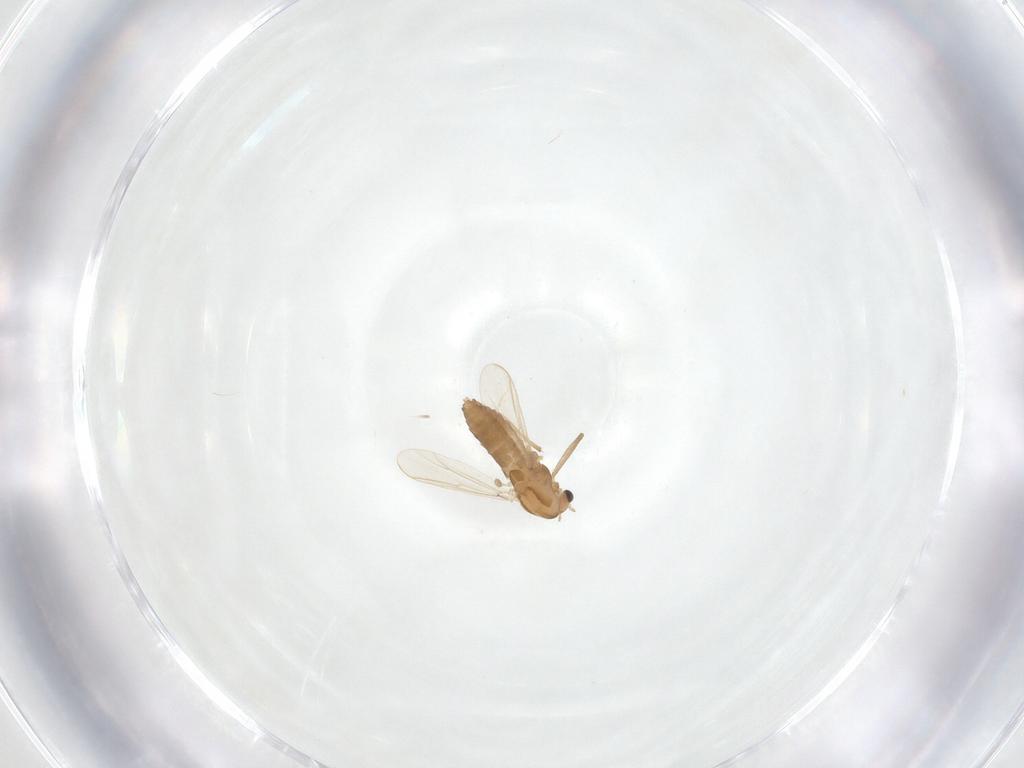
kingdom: Animalia
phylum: Arthropoda
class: Insecta
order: Diptera
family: Chironomidae
